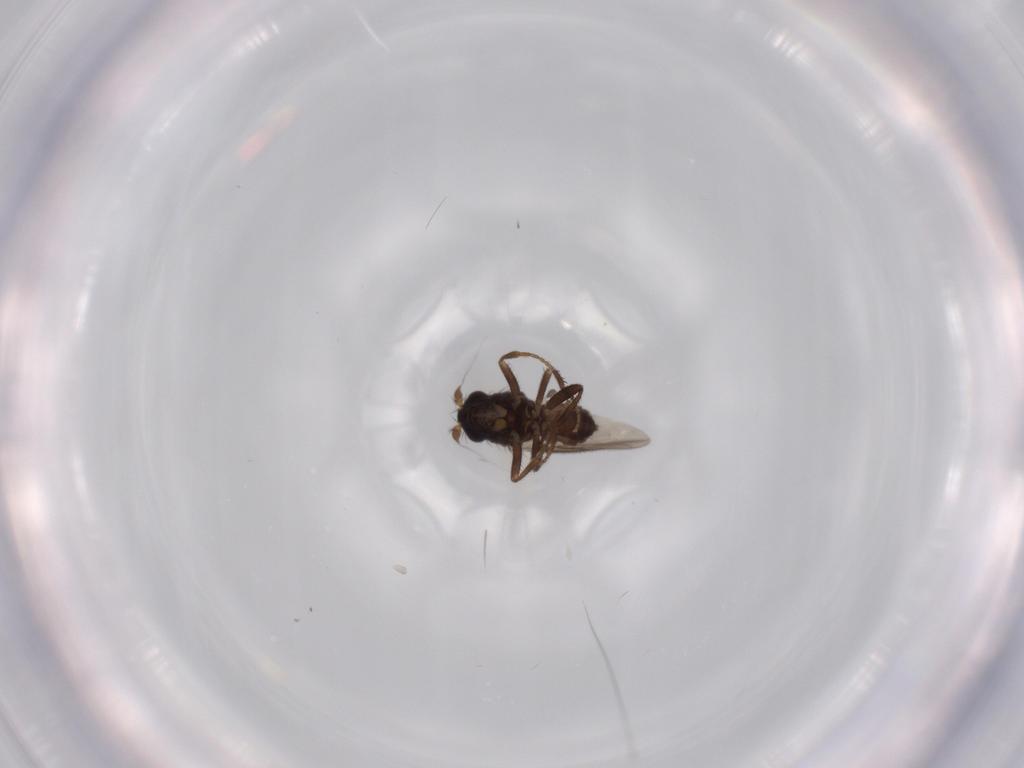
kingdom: Animalia
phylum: Arthropoda
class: Insecta
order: Diptera
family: Sphaeroceridae
